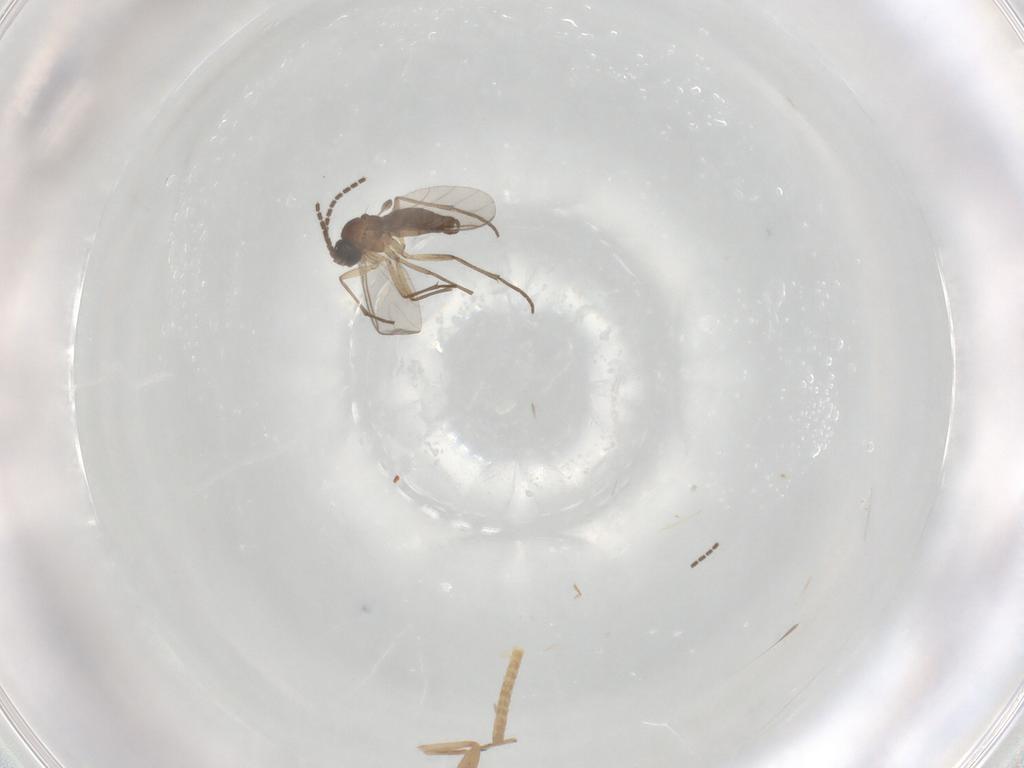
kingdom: Animalia
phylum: Arthropoda
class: Insecta
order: Diptera
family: Sciaridae
